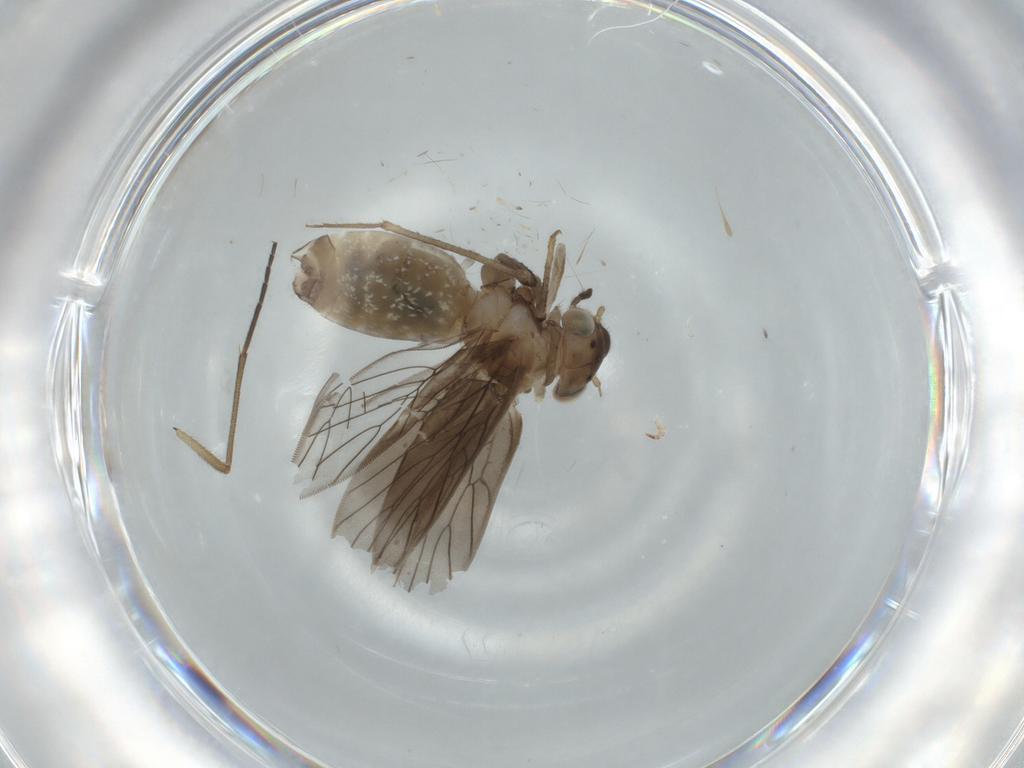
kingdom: Animalia
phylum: Arthropoda
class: Insecta
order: Psocodea
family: Lepidopsocidae
